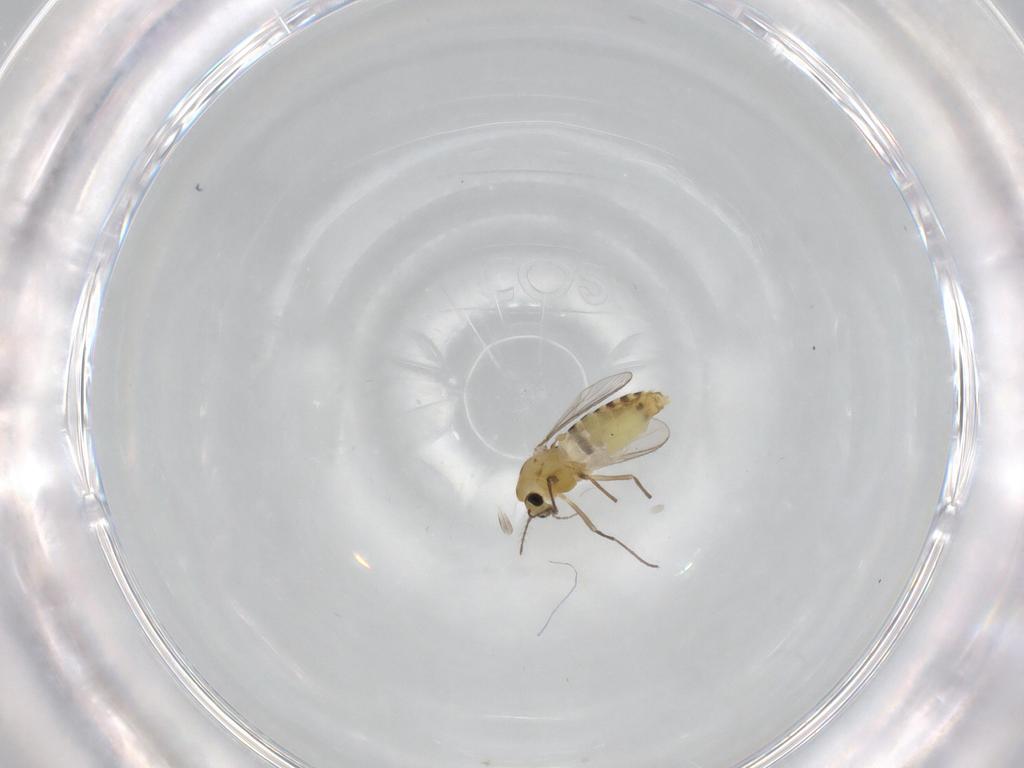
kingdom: Animalia
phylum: Arthropoda
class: Insecta
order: Diptera
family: Chironomidae
